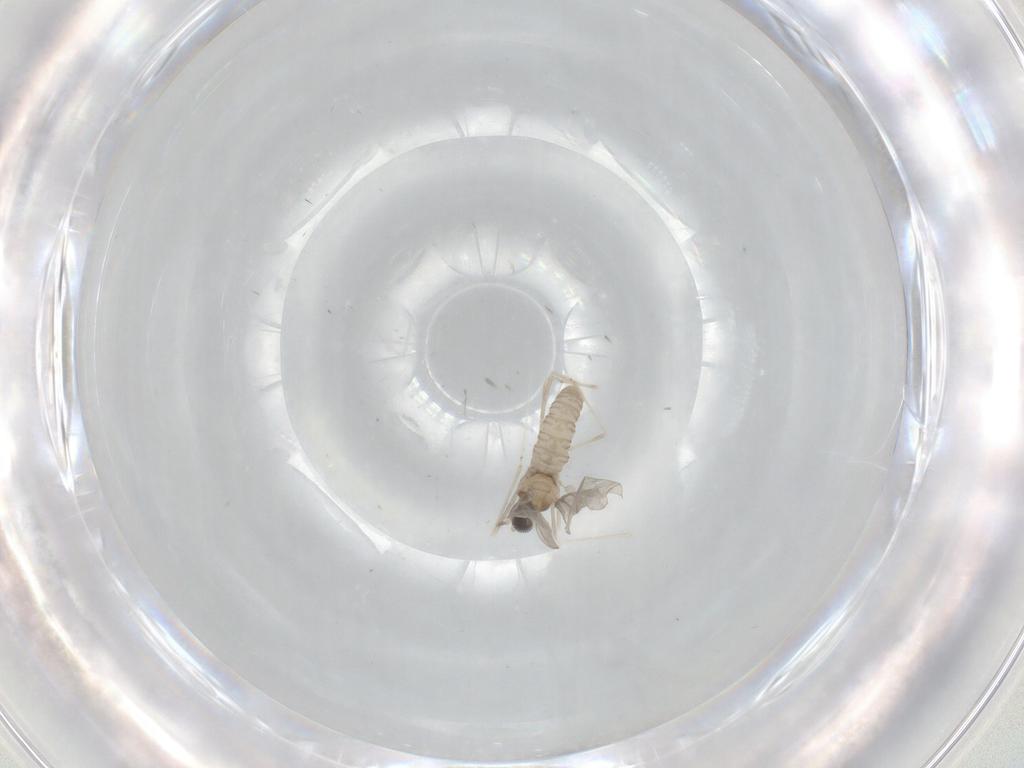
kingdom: Animalia
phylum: Arthropoda
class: Insecta
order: Diptera
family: Cecidomyiidae
